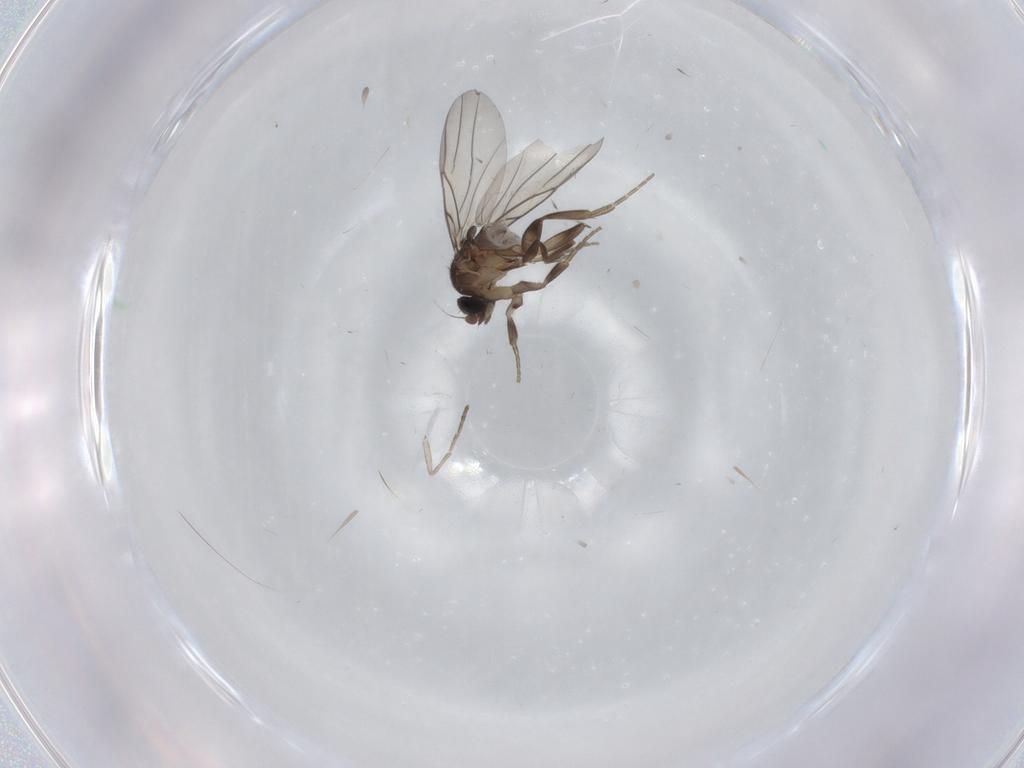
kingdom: Animalia
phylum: Arthropoda
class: Insecta
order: Diptera
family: Phoridae
